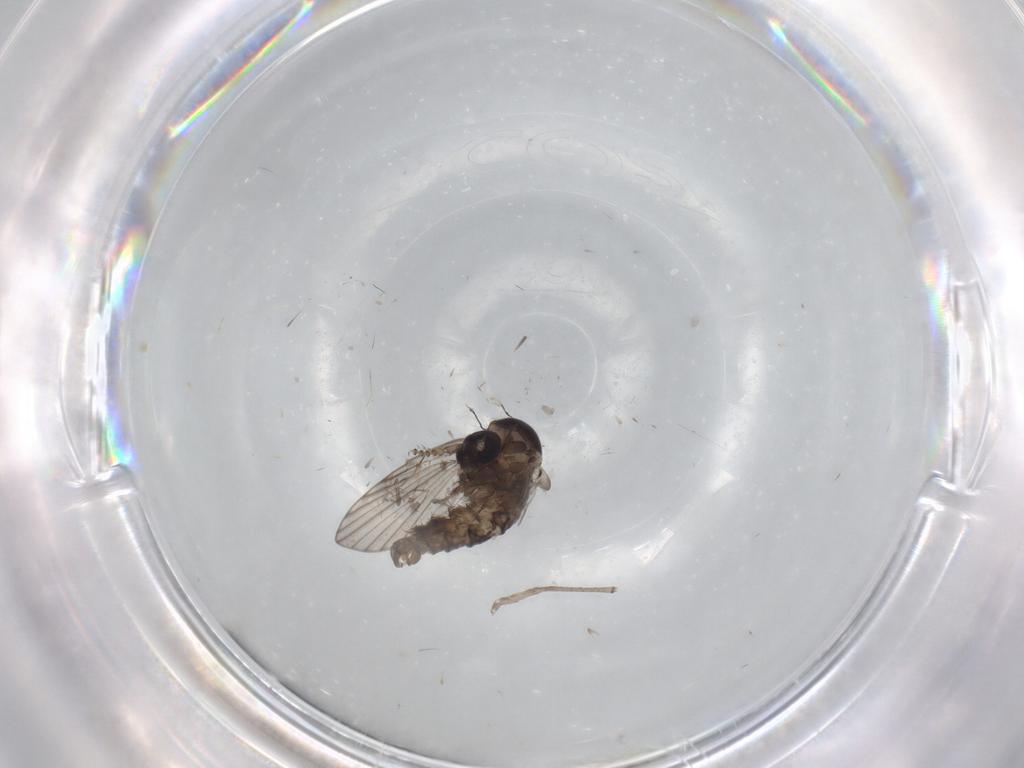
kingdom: Animalia
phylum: Arthropoda
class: Insecta
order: Diptera
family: Psychodidae
